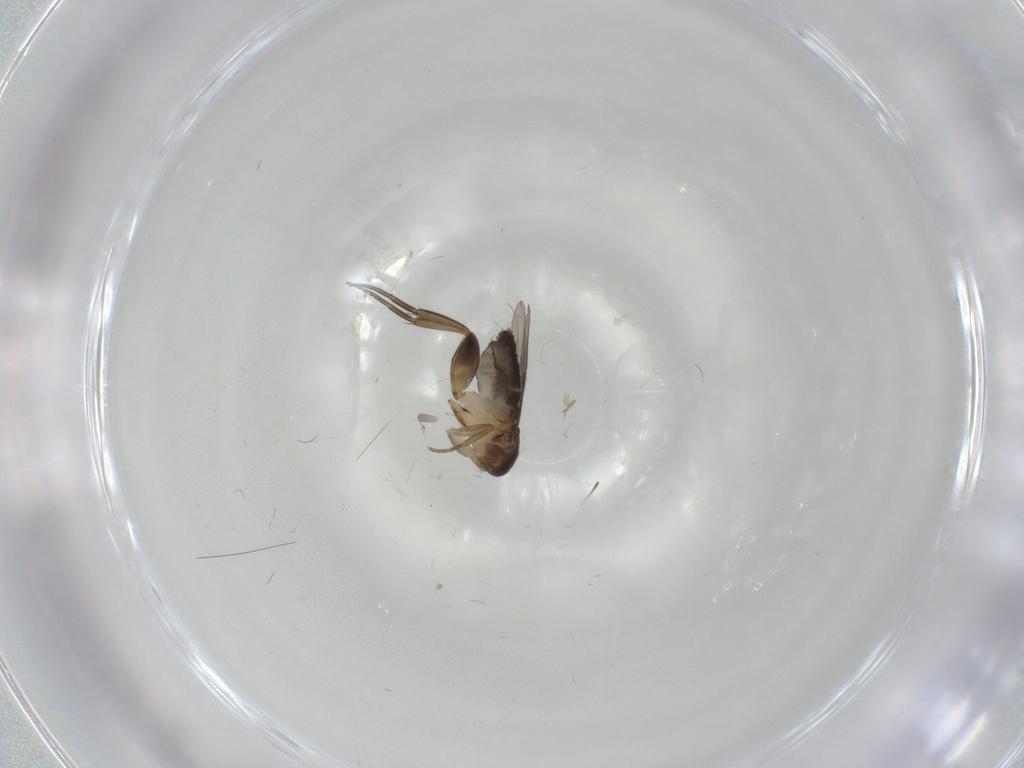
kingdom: Animalia
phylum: Arthropoda
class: Insecta
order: Diptera
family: Phoridae
